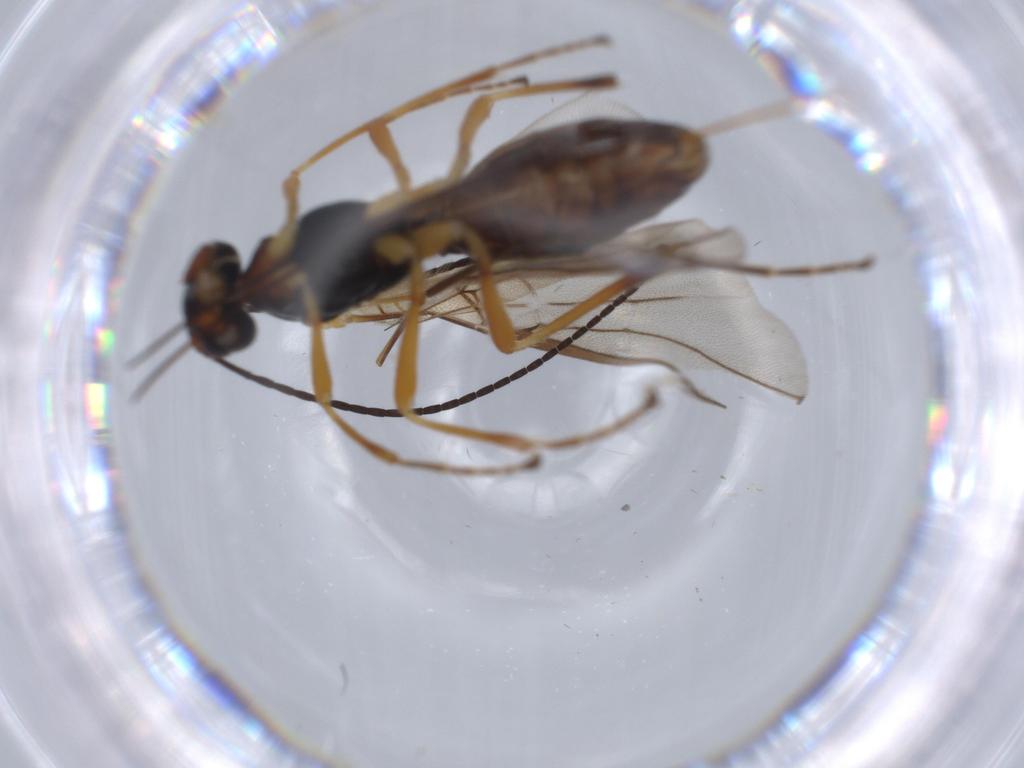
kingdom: Animalia
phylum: Arthropoda
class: Insecta
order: Hymenoptera
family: Braconidae
